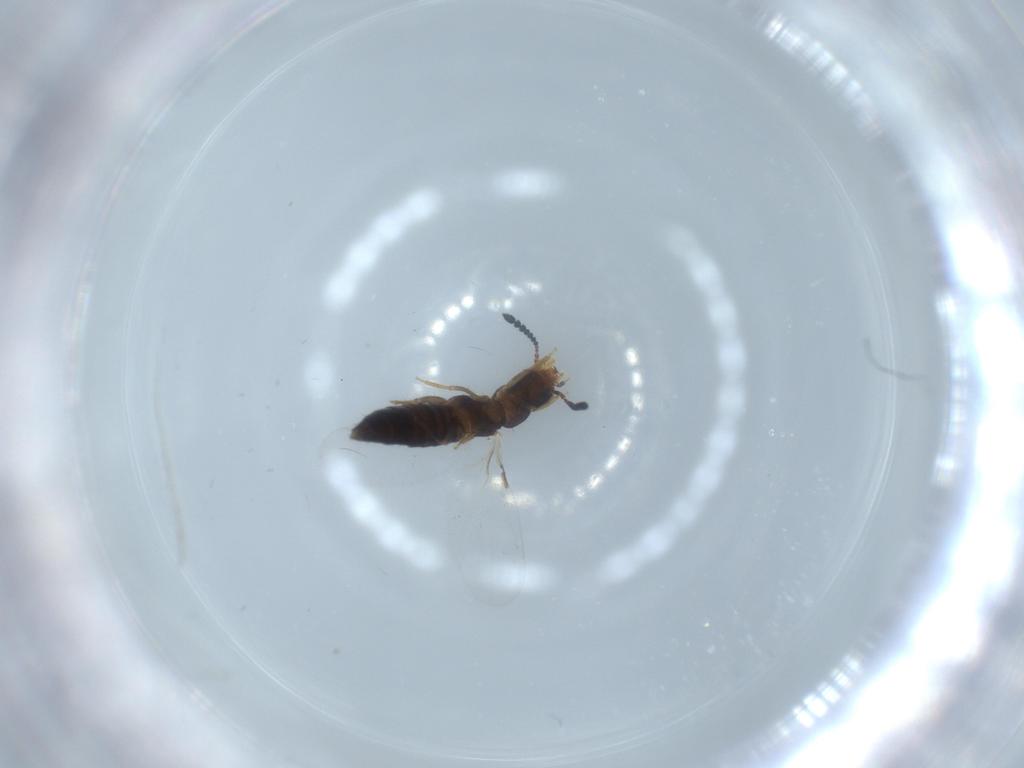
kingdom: Animalia
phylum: Arthropoda
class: Insecta
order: Coleoptera
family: Staphylinidae
